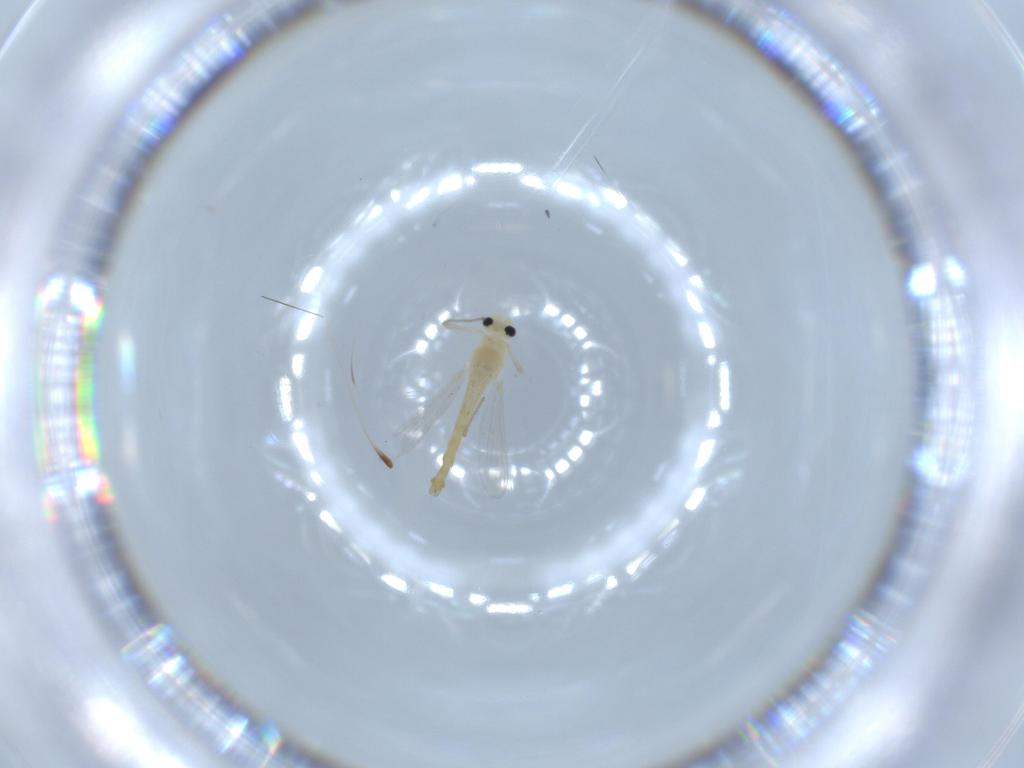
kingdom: Animalia
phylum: Arthropoda
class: Insecta
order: Diptera
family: Chironomidae
